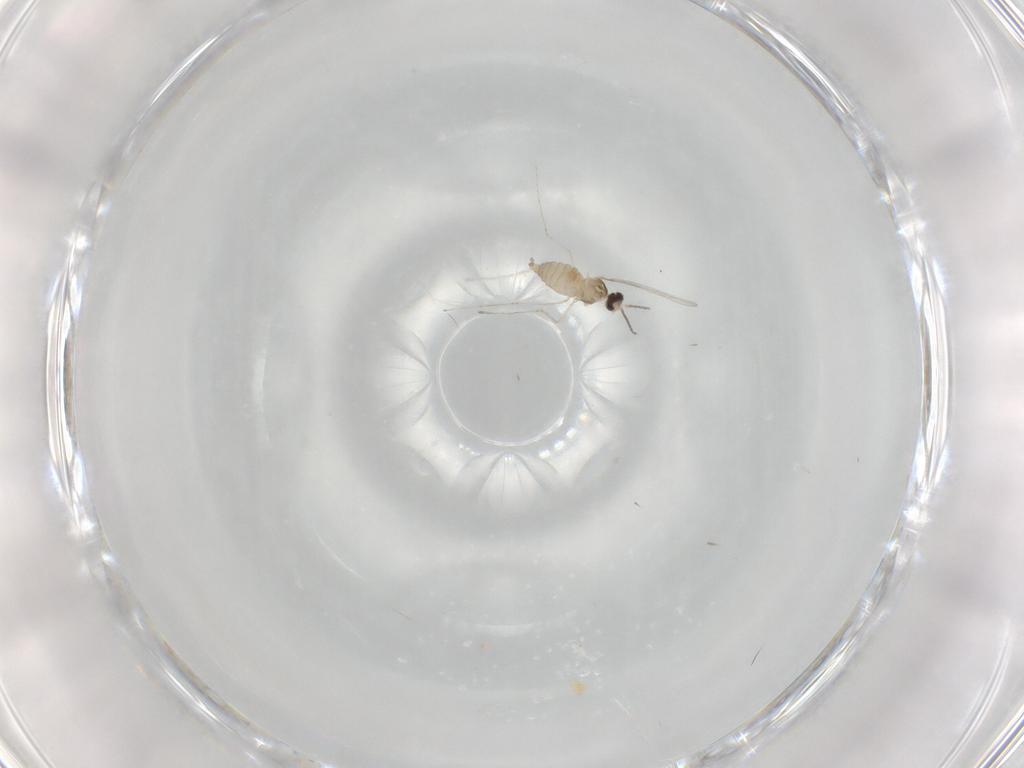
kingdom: Animalia
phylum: Arthropoda
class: Insecta
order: Diptera
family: Cecidomyiidae
